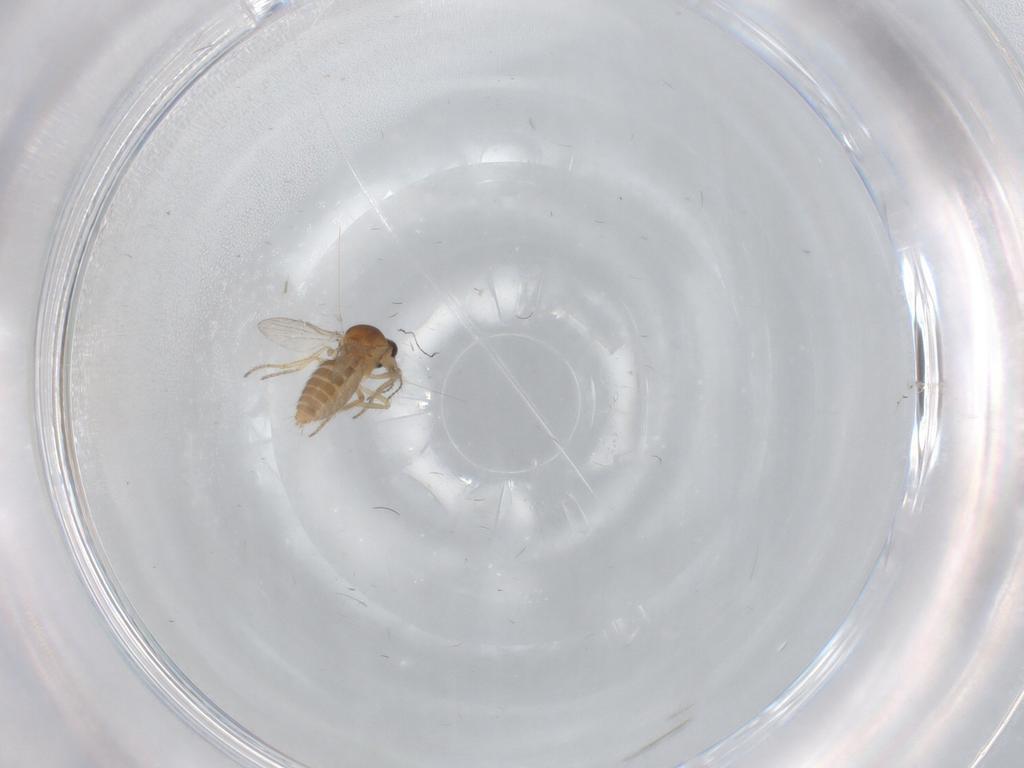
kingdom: Animalia
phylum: Arthropoda
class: Insecta
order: Diptera
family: Ceratopogonidae
